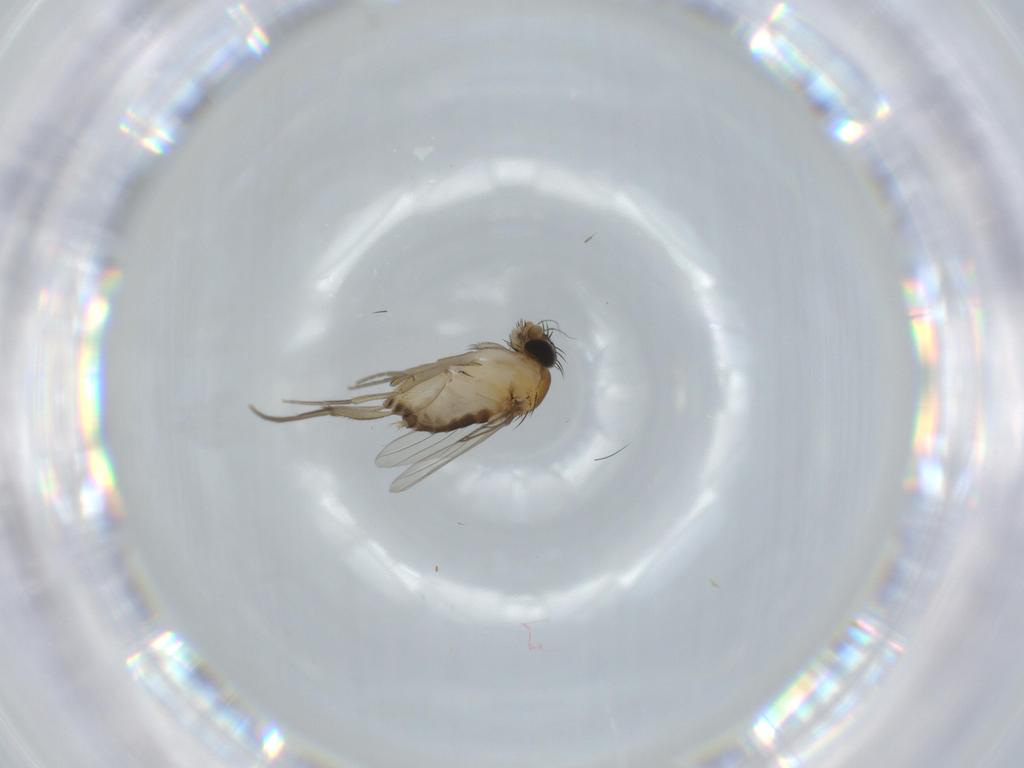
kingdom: Animalia
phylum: Arthropoda
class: Insecta
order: Diptera
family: Phoridae
